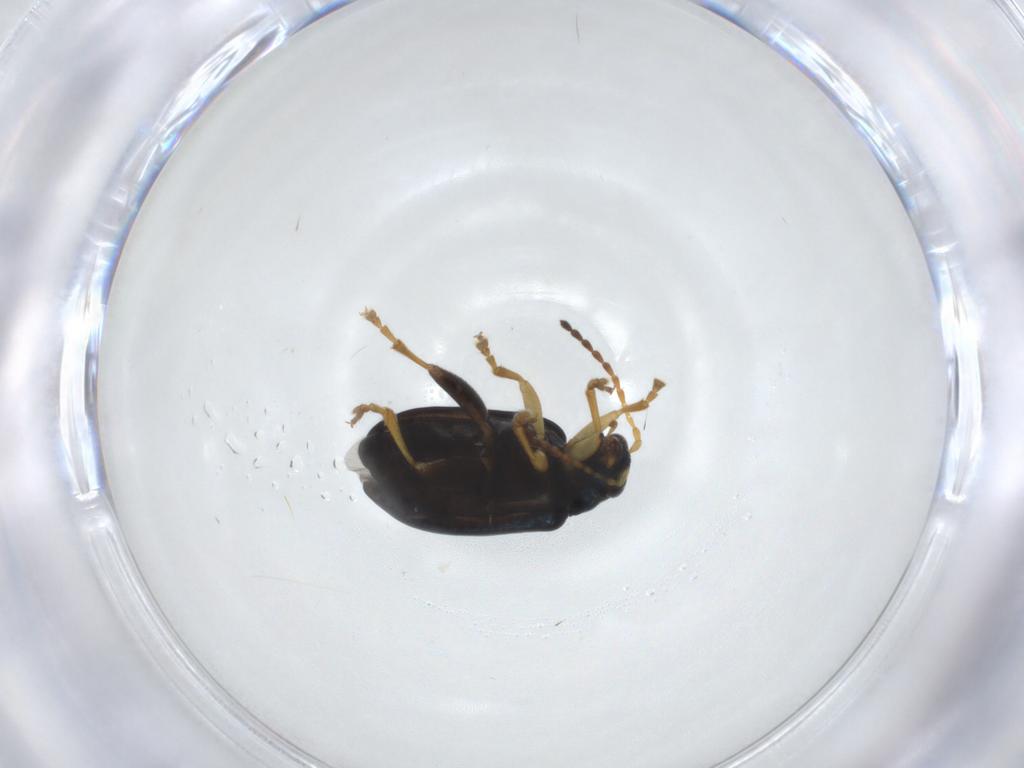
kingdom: Animalia
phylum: Arthropoda
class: Insecta
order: Coleoptera
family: Chrysomelidae
